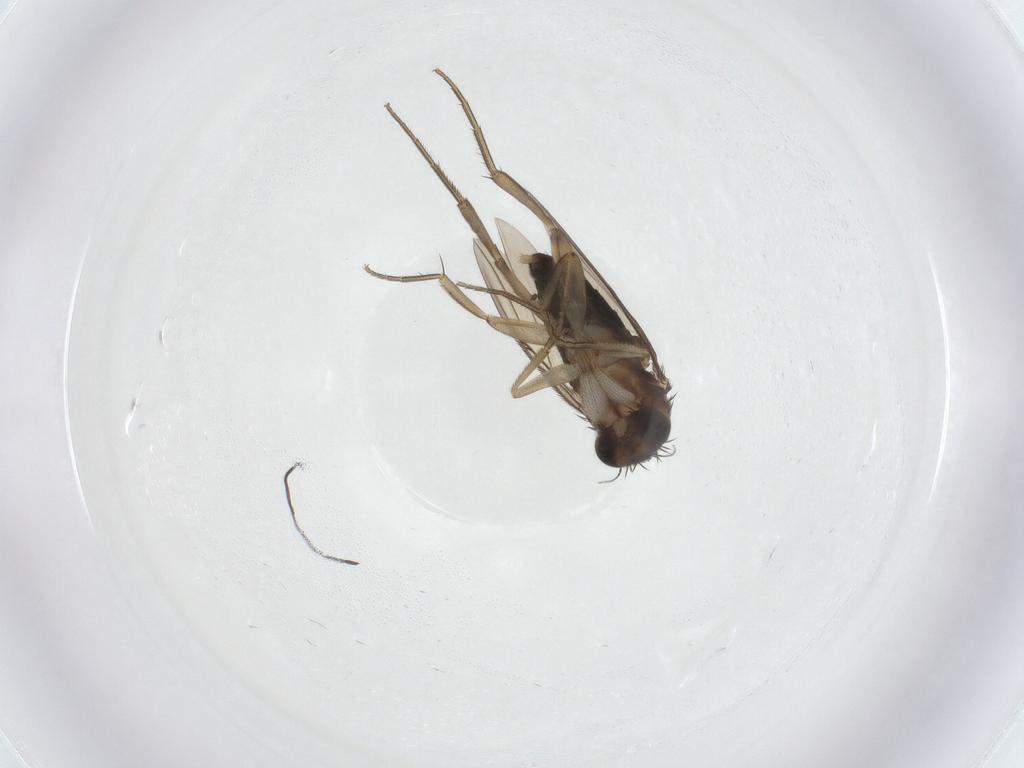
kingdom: Animalia
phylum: Arthropoda
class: Insecta
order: Diptera
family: Phoridae
